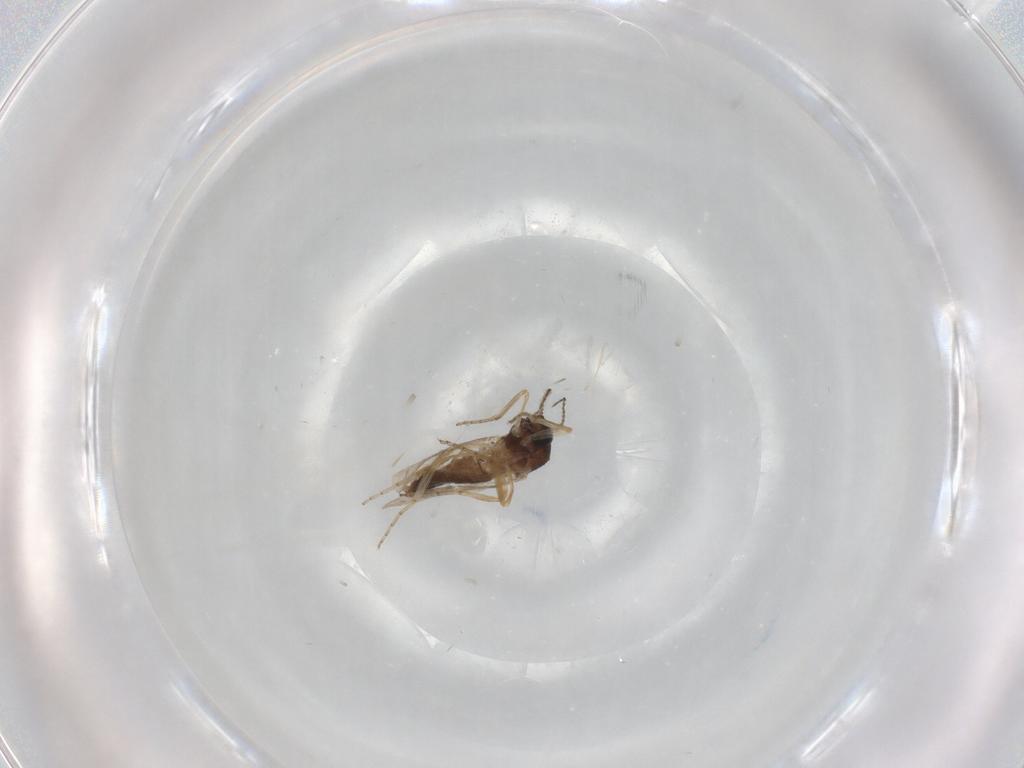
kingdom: Animalia
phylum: Arthropoda
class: Insecta
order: Diptera
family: Ceratopogonidae
